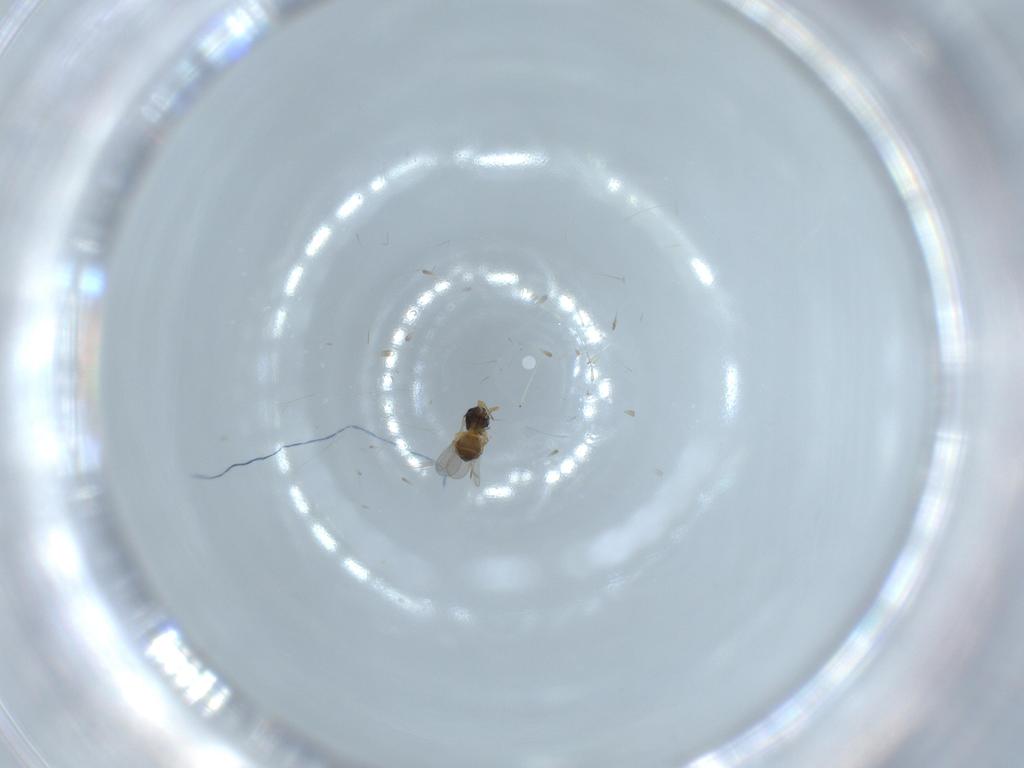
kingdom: Animalia
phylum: Arthropoda
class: Insecta
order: Hymenoptera
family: Scelionidae
